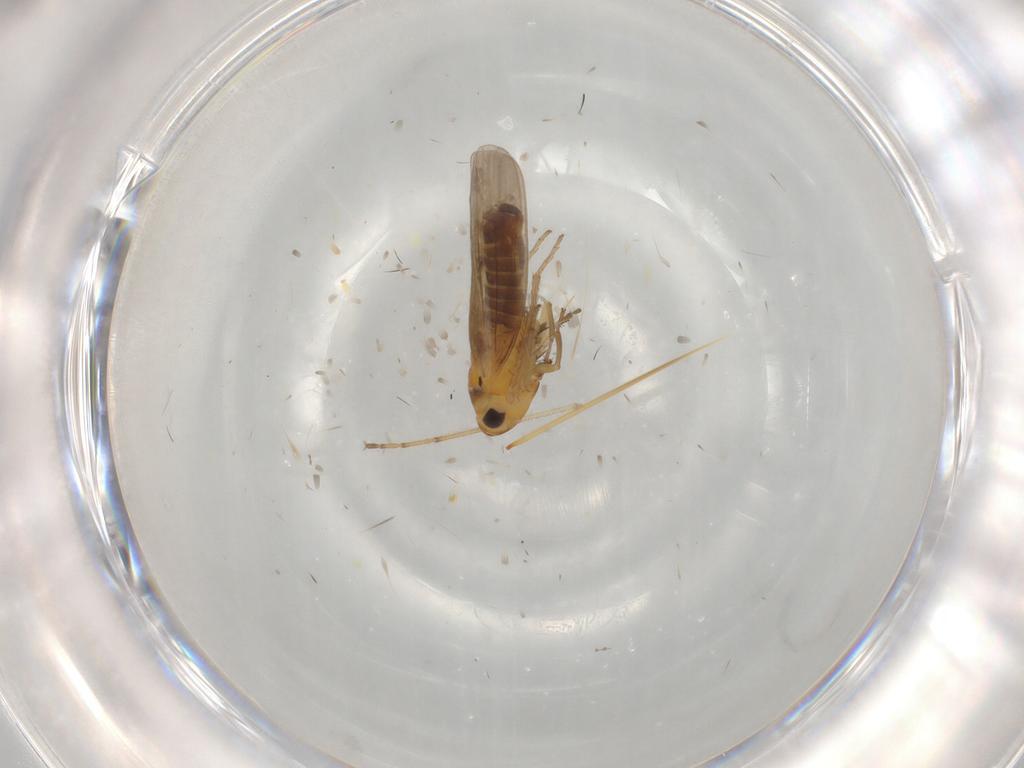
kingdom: Animalia
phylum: Arthropoda
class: Insecta
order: Hemiptera
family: Cicadellidae
